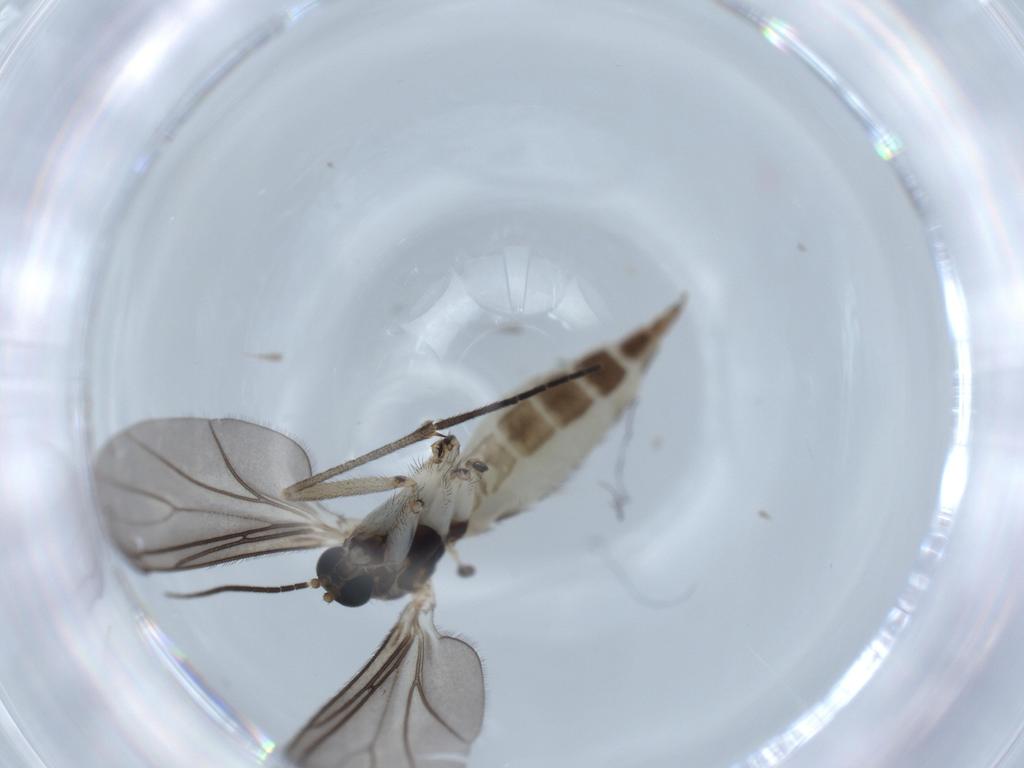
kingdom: Animalia
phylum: Arthropoda
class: Insecta
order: Diptera
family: Sciaridae
